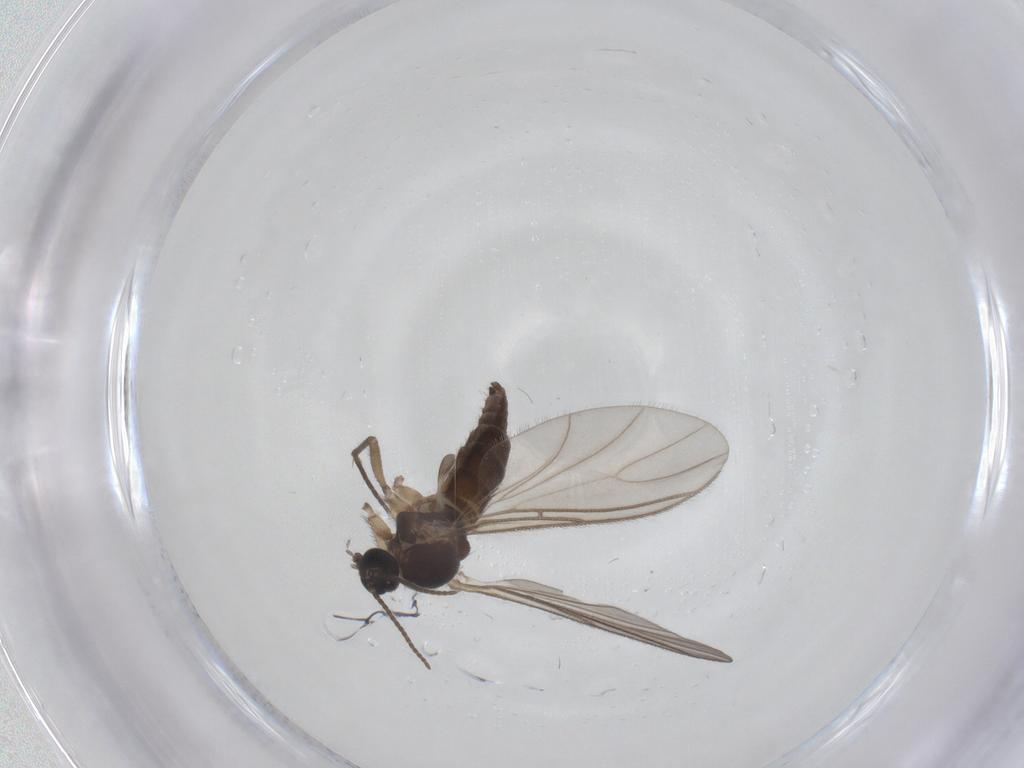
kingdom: Animalia
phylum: Arthropoda
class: Insecta
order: Diptera
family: Sciaridae
